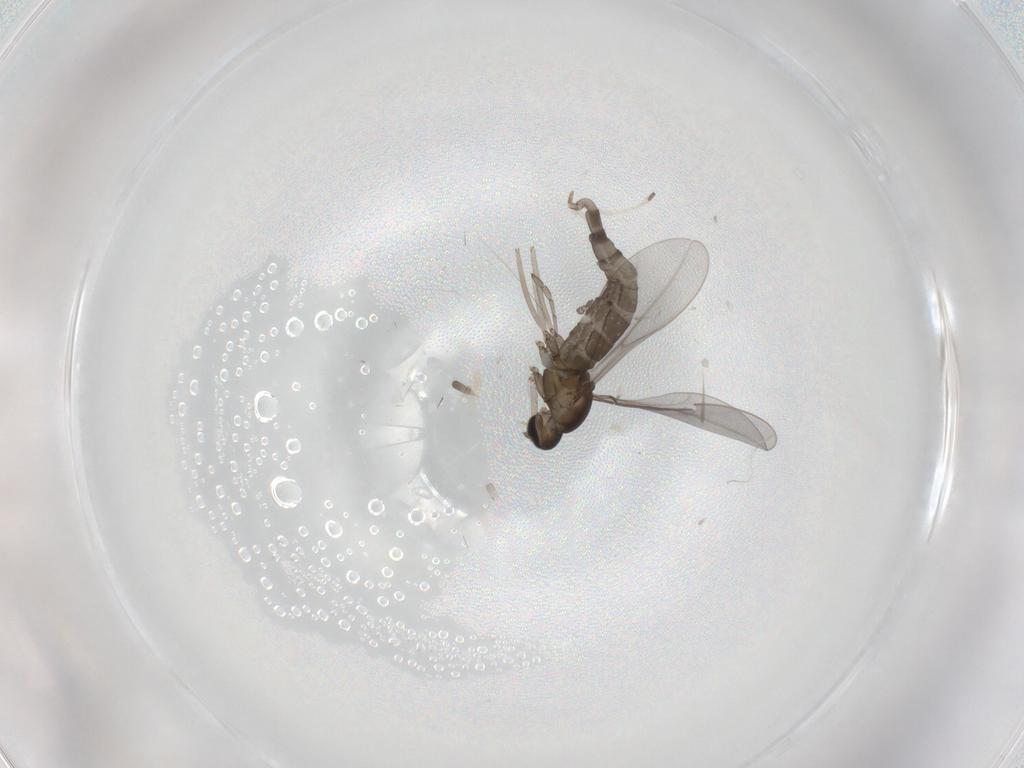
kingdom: Animalia
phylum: Arthropoda
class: Insecta
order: Diptera
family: Cecidomyiidae
